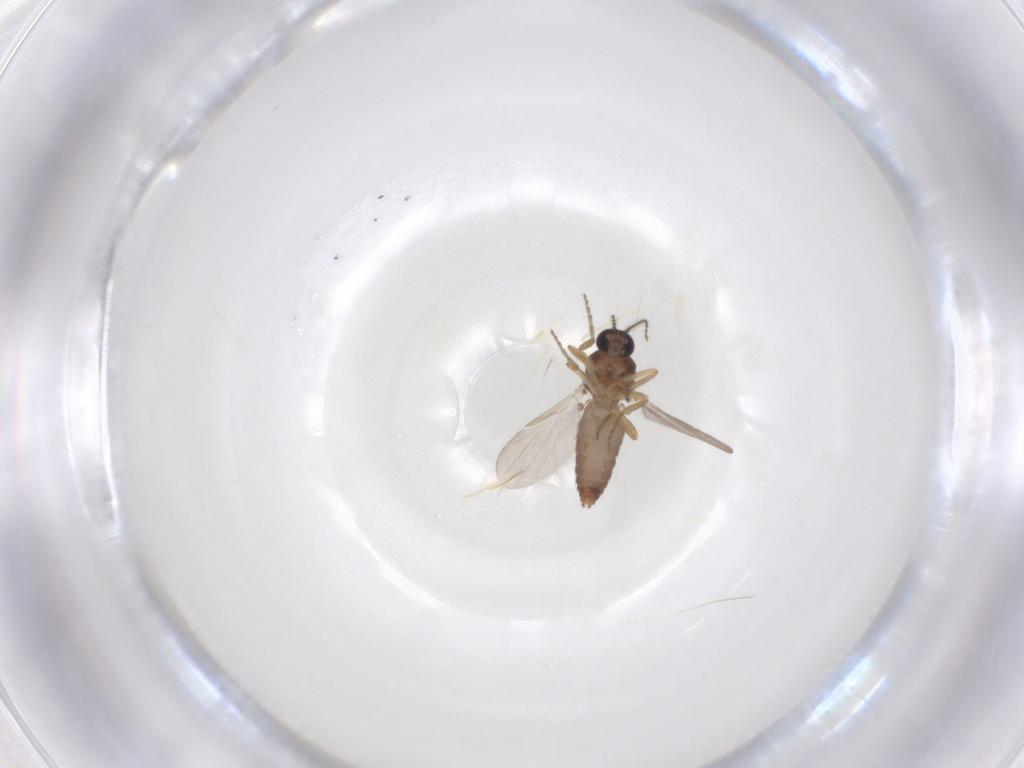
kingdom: Animalia
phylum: Arthropoda
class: Insecta
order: Diptera
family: Ceratopogonidae
